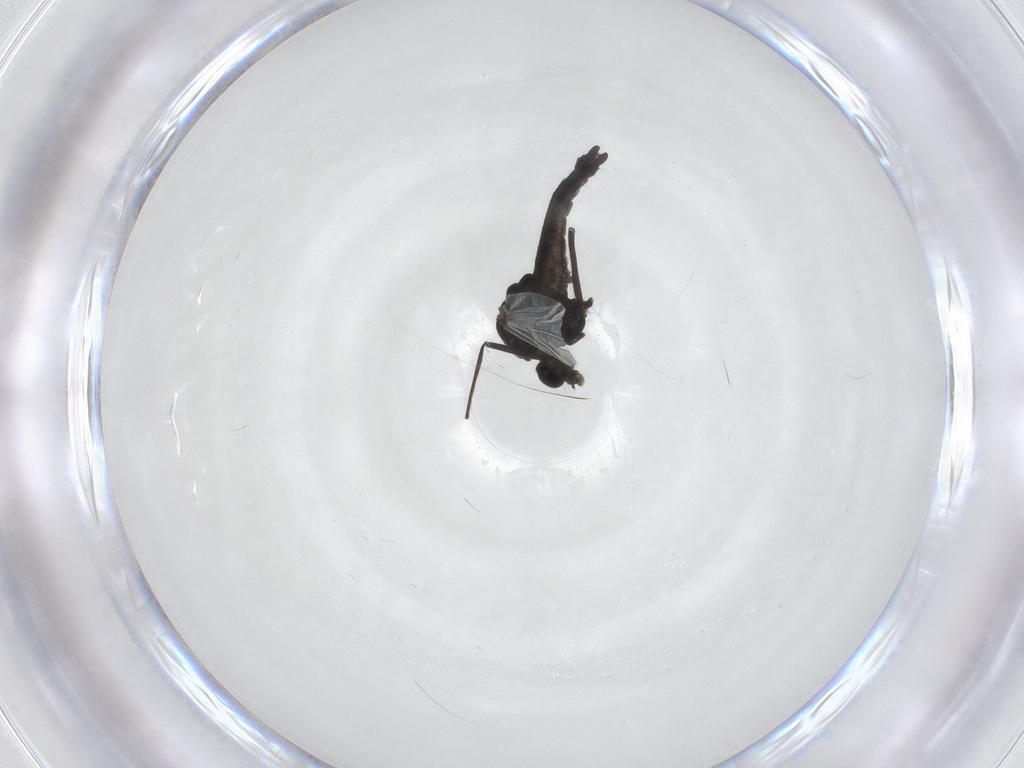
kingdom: Animalia
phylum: Arthropoda
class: Insecta
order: Diptera
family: Chironomidae
